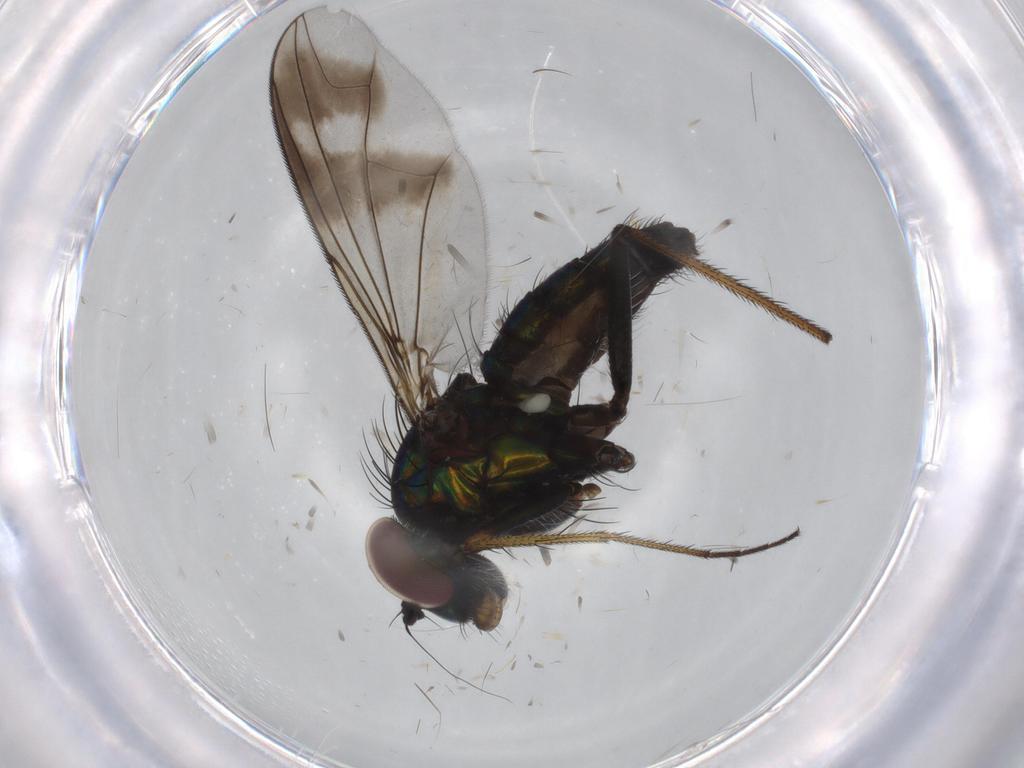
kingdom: Animalia
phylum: Arthropoda
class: Insecta
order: Diptera
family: Dolichopodidae
